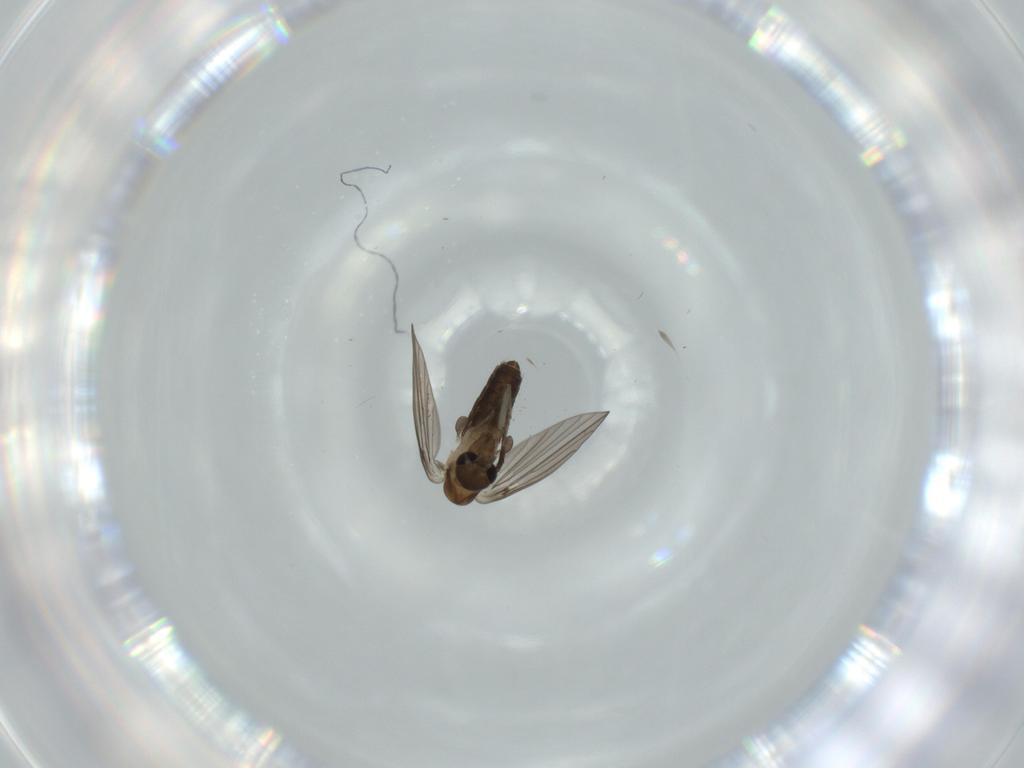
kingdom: Animalia
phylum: Arthropoda
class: Insecta
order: Diptera
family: Psychodidae
